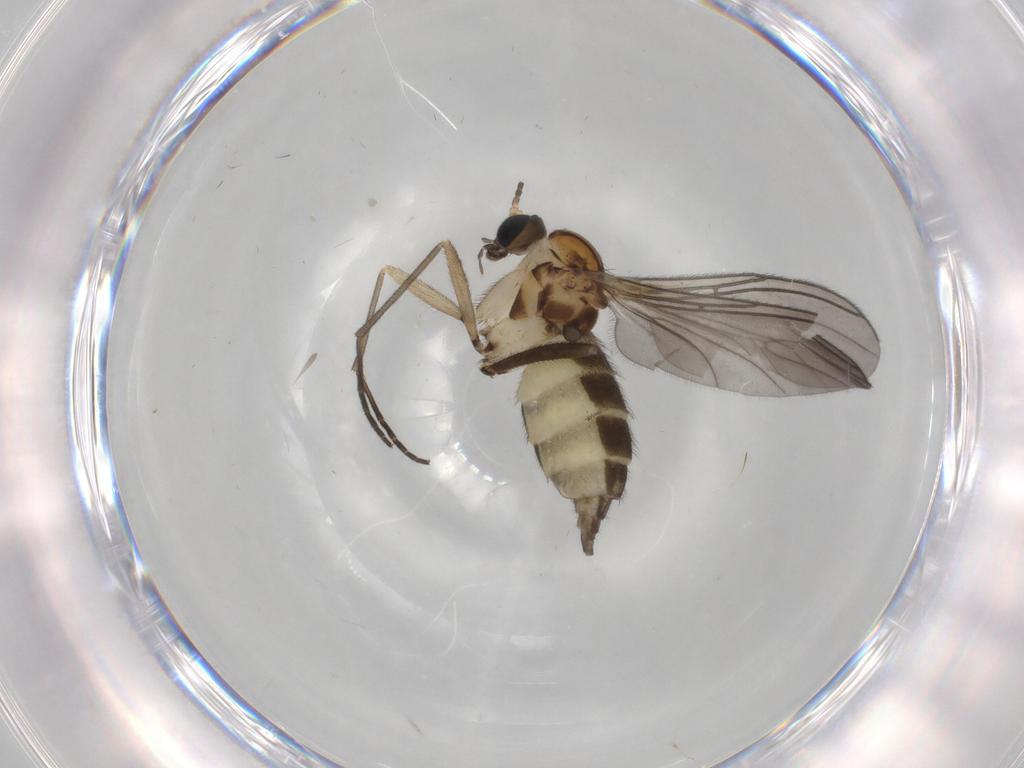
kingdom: Animalia
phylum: Arthropoda
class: Insecta
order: Diptera
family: Sciaridae
